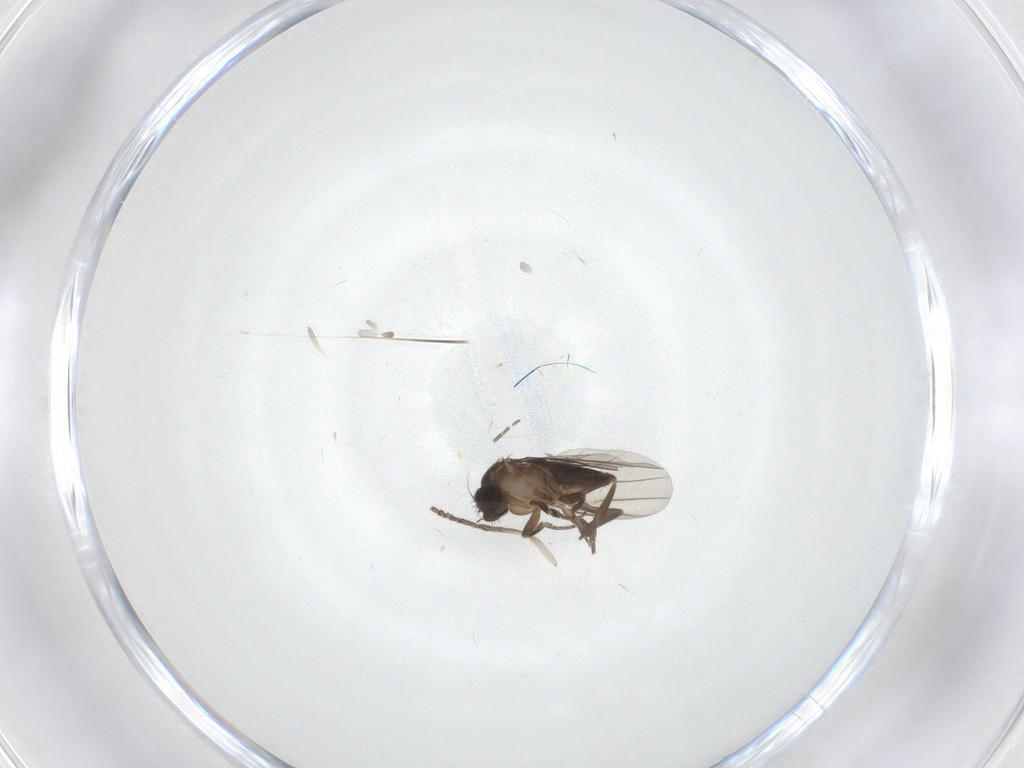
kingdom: Animalia
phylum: Arthropoda
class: Insecta
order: Diptera
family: Psychodidae
